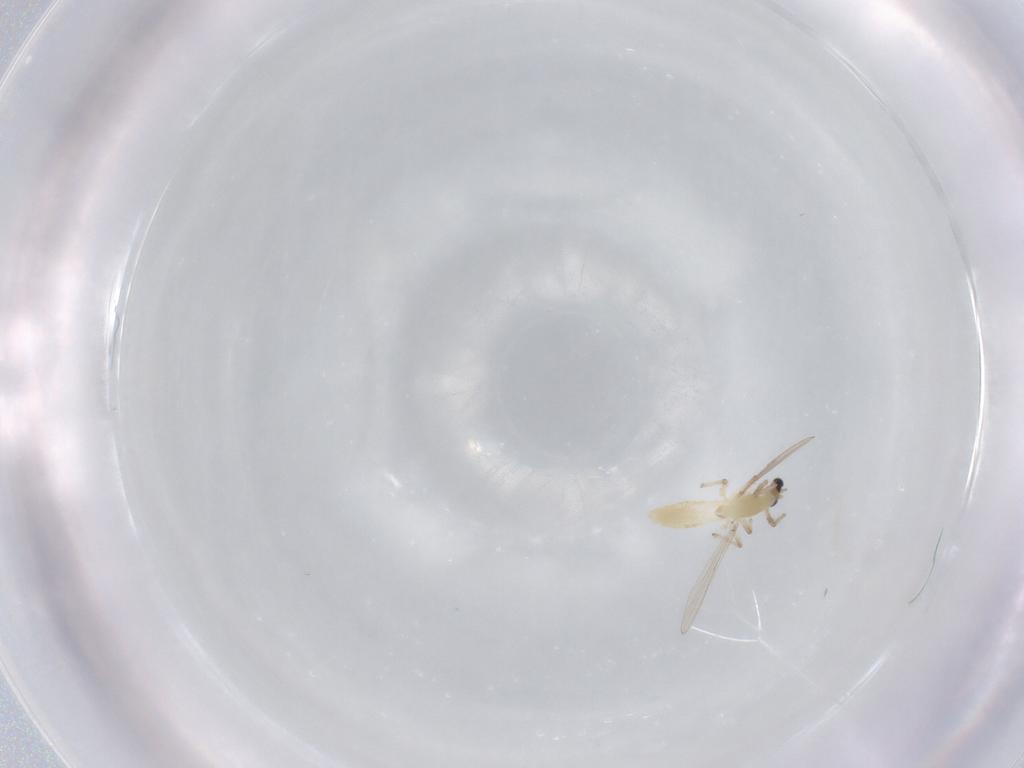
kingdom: Animalia
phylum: Arthropoda
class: Insecta
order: Diptera
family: Chironomidae
